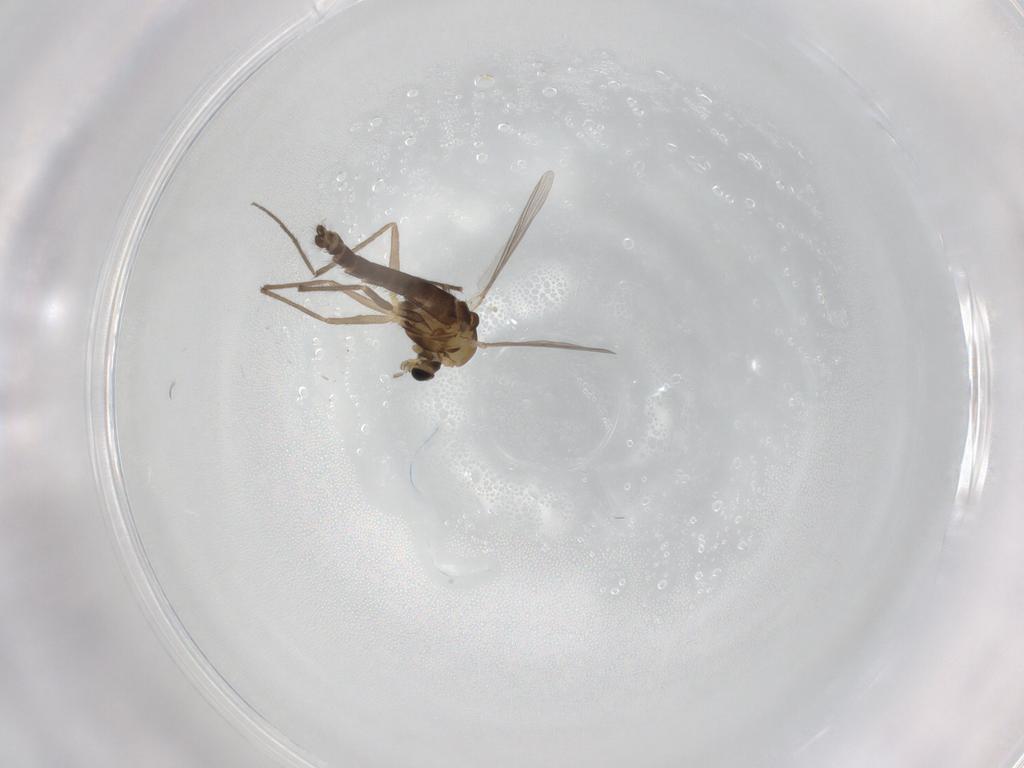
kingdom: Animalia
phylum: Arthropoda
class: Insecta
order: Diptera
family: Chironomidae
